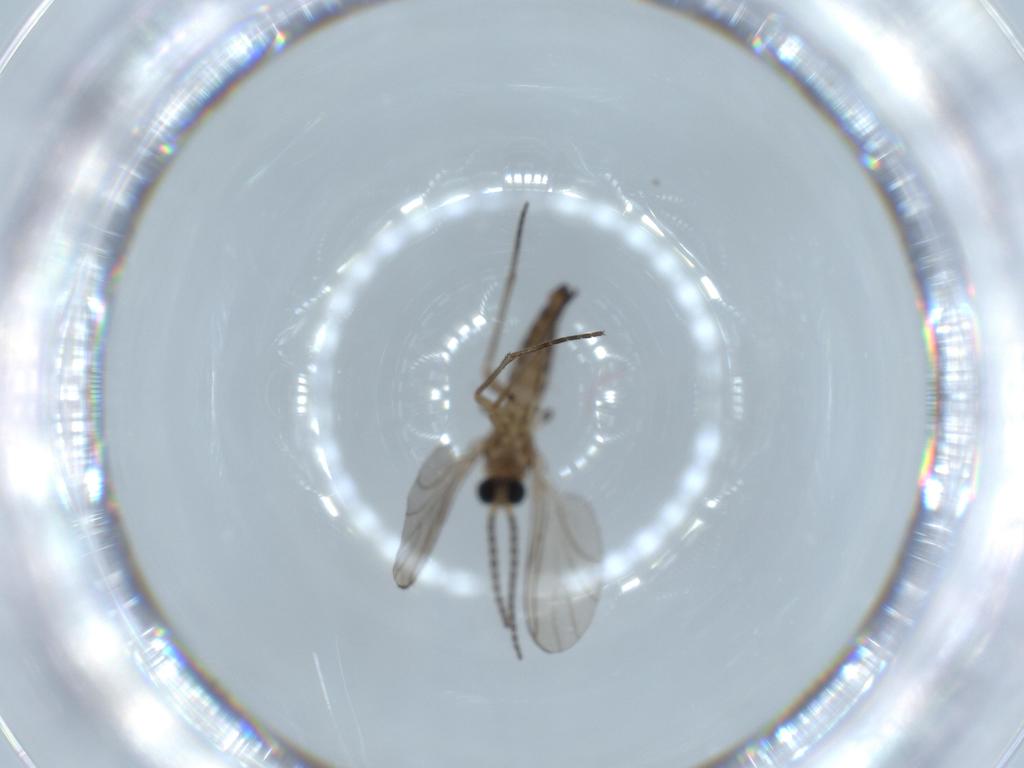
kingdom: Animalia
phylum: Arthropoda
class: Insecta
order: Diptera
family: Sciaridae
